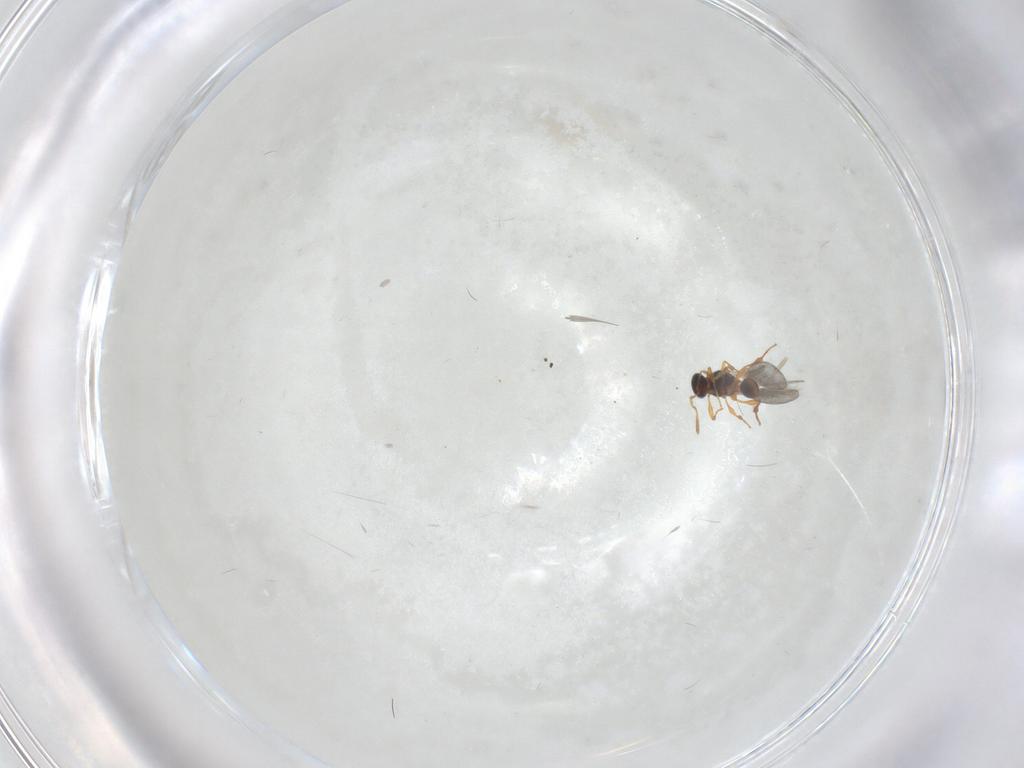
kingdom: Animalia
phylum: Arthropoda
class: Insecta
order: Hymenoptera
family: Platygastridae
